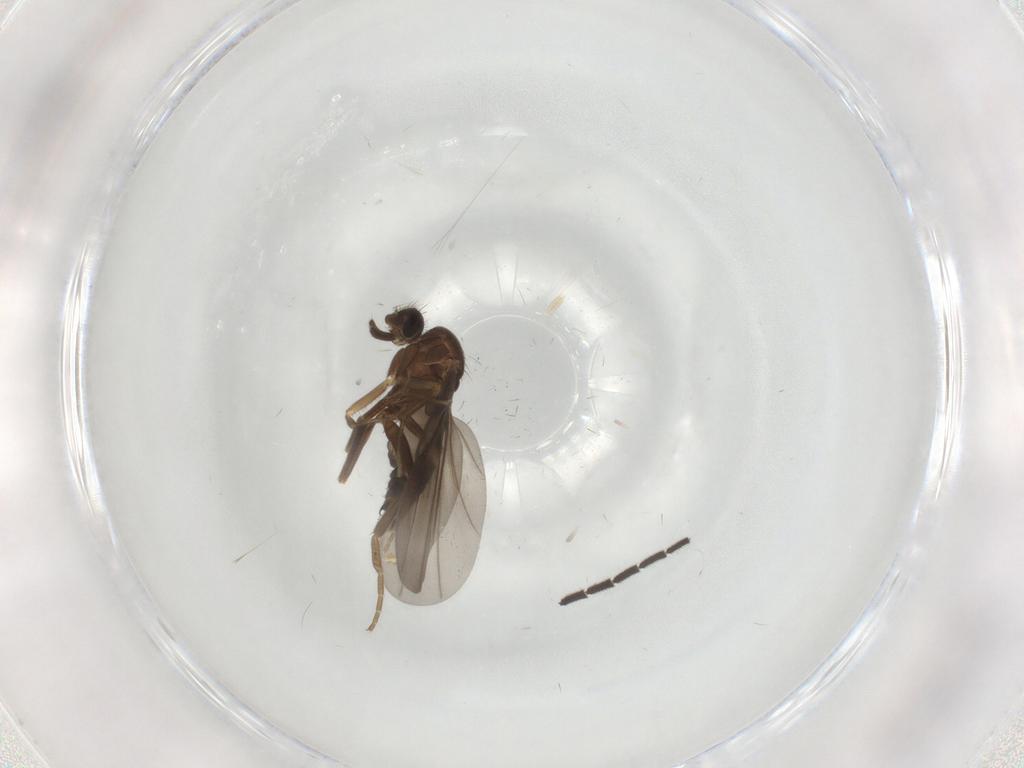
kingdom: Animalia
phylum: Arthropoda
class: Insecta
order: Diptera
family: Sciaridae
